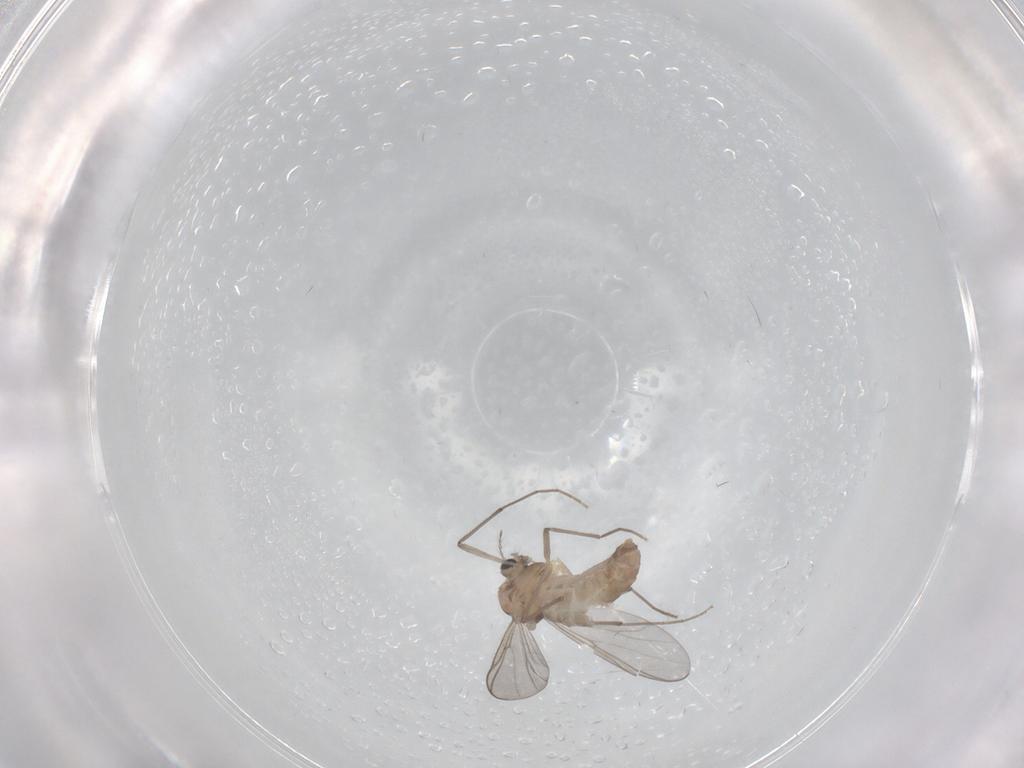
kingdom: Animalia
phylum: Arthropoda
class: Insecta
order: Diptera
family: Chironomidae
